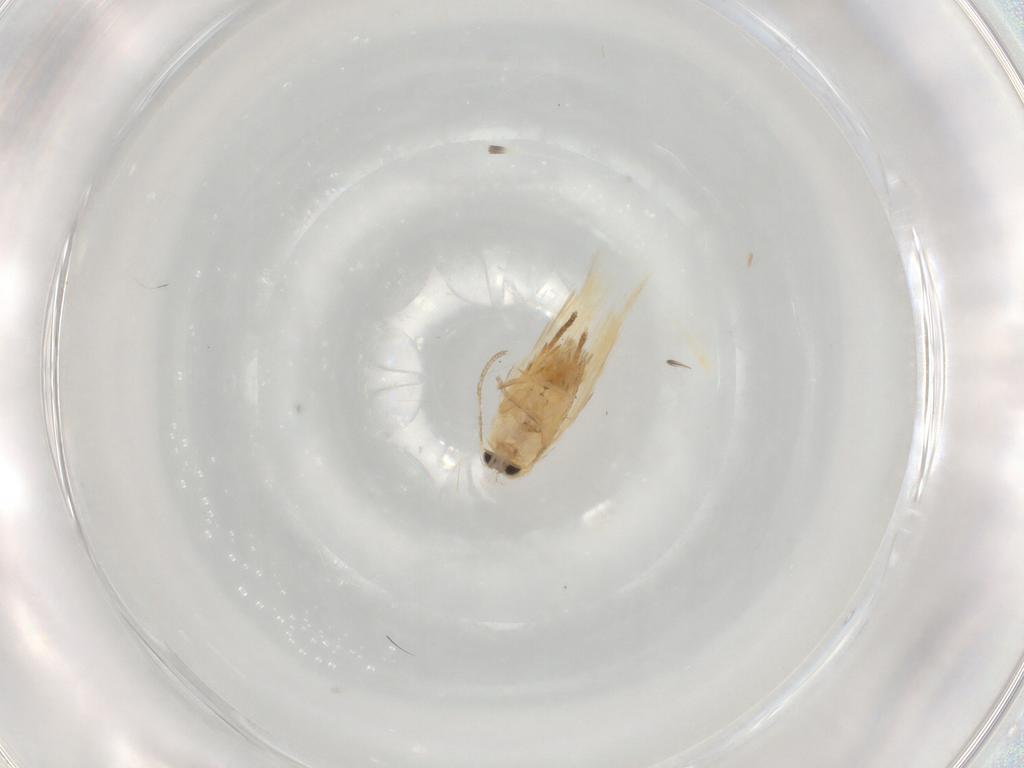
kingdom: Animalia
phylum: Arthropoda
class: Insecta
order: Lepidoptera
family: Nepticulidae
